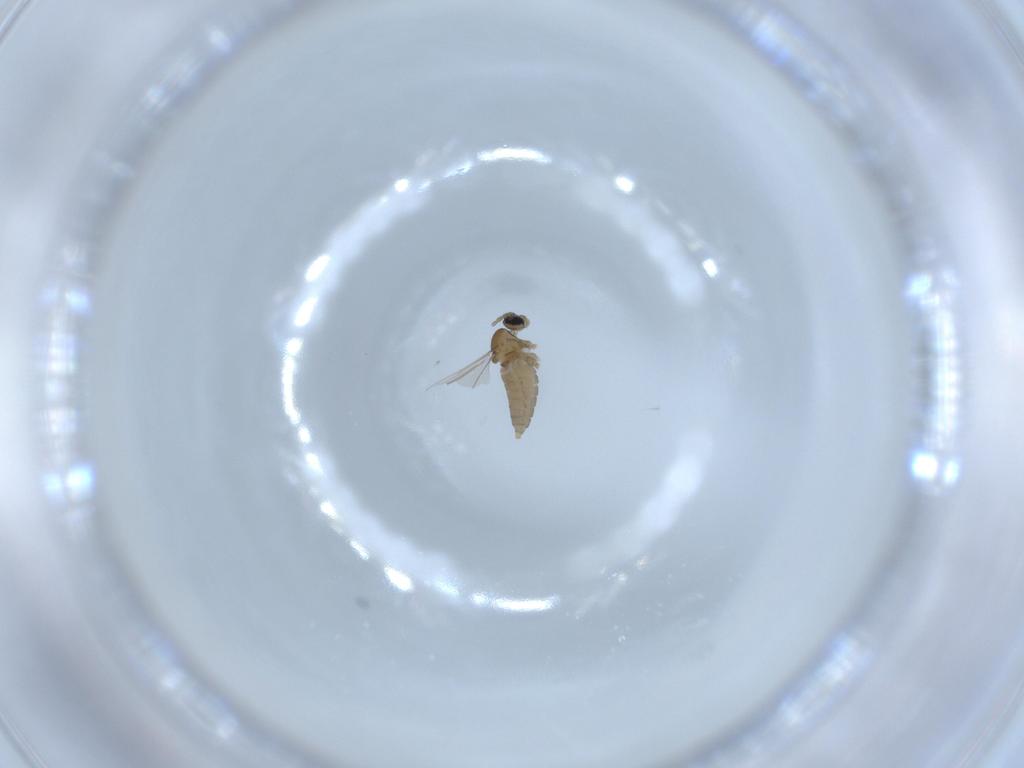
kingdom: Animalia
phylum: Arthropoda
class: Insecta
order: Diptera
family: Cecidomyiidae
